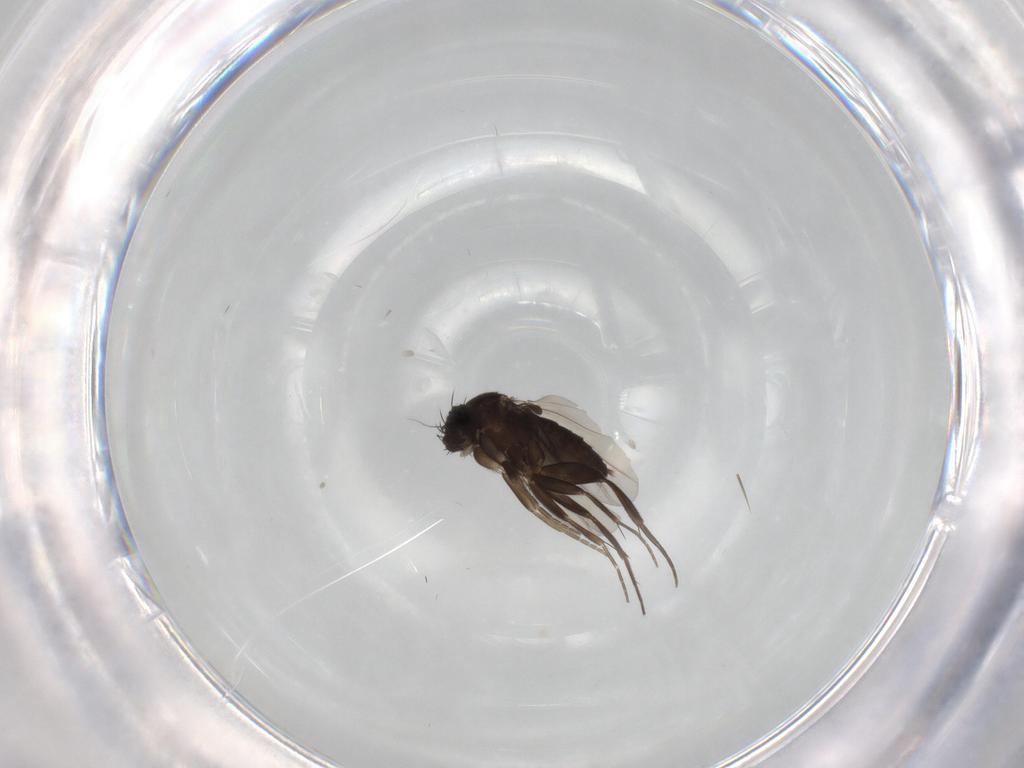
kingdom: Animalia
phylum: Arthropoda
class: Insecta
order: Diptera
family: Phoridae
